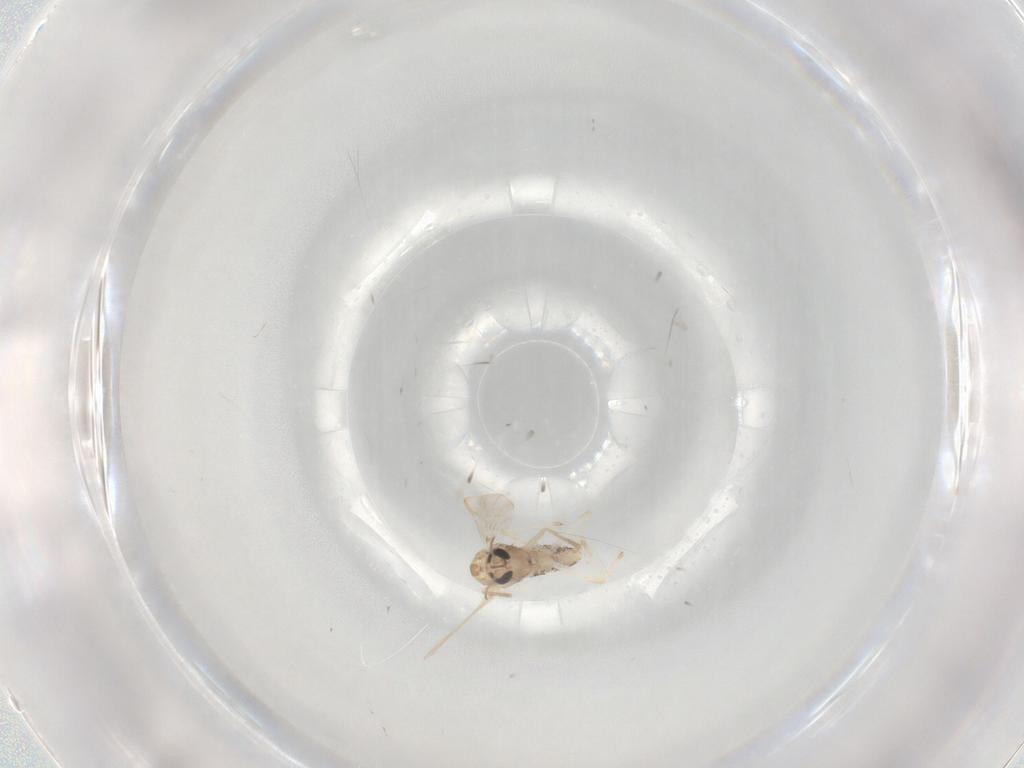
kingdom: Animalia
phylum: Arthropoda
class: Insecta
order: Diptera
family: Chironomidae
